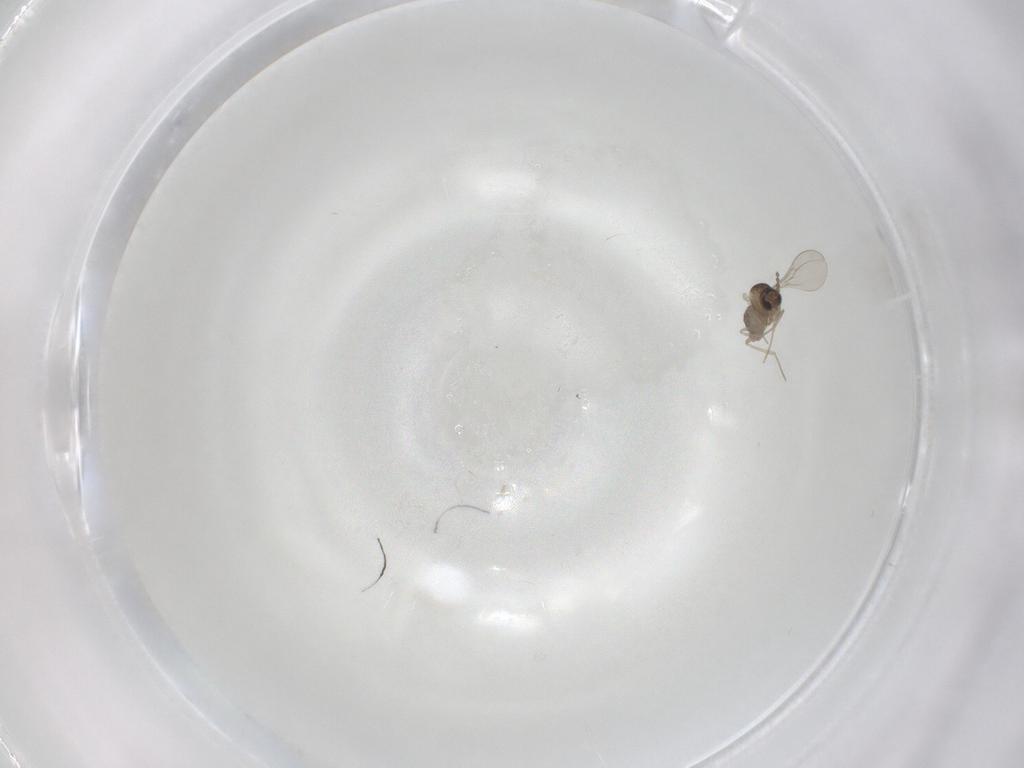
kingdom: Animalia
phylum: Arthropoda
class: Insecta
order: Diptera
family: Cecidomyiidae
